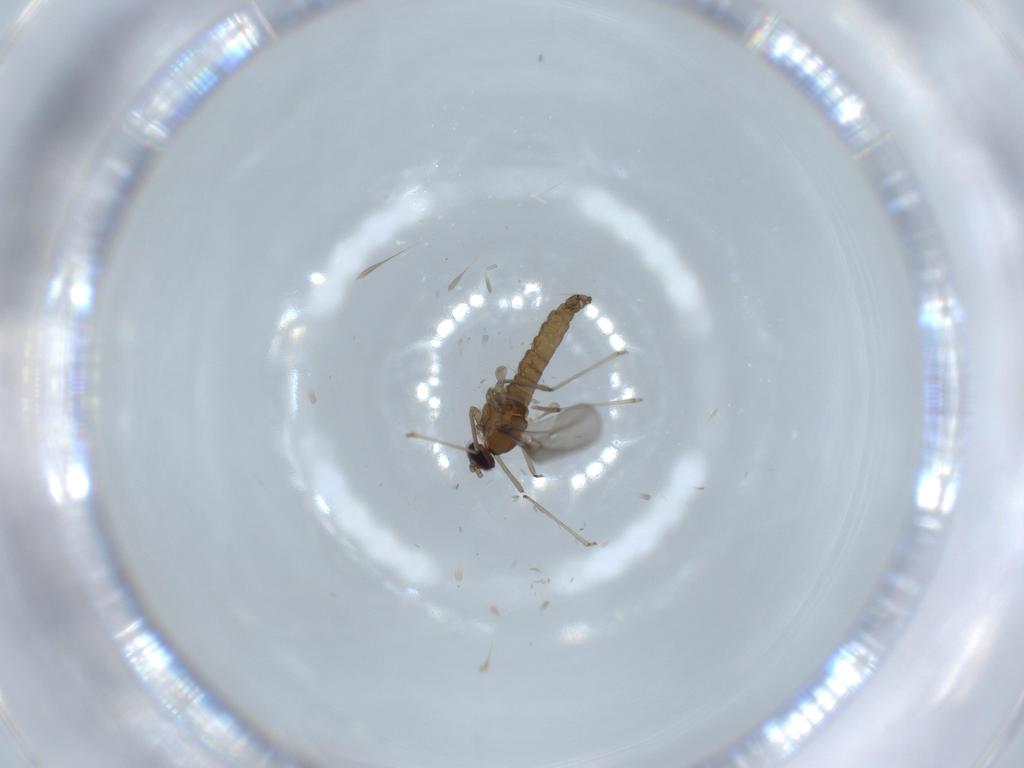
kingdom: Animalia
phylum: Arthropoda
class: Insecta
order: Diptera
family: Cecidomyiidae
